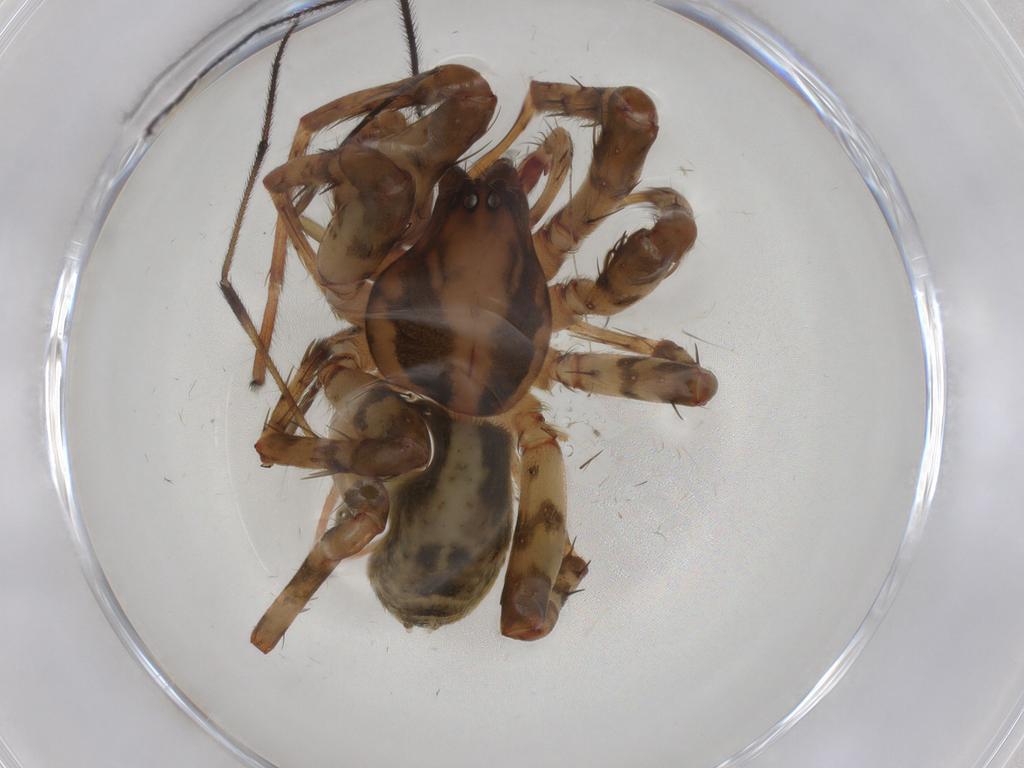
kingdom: Animalia
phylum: Arthropoda
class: Arachnida
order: Araneae
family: Anyphaenidae
